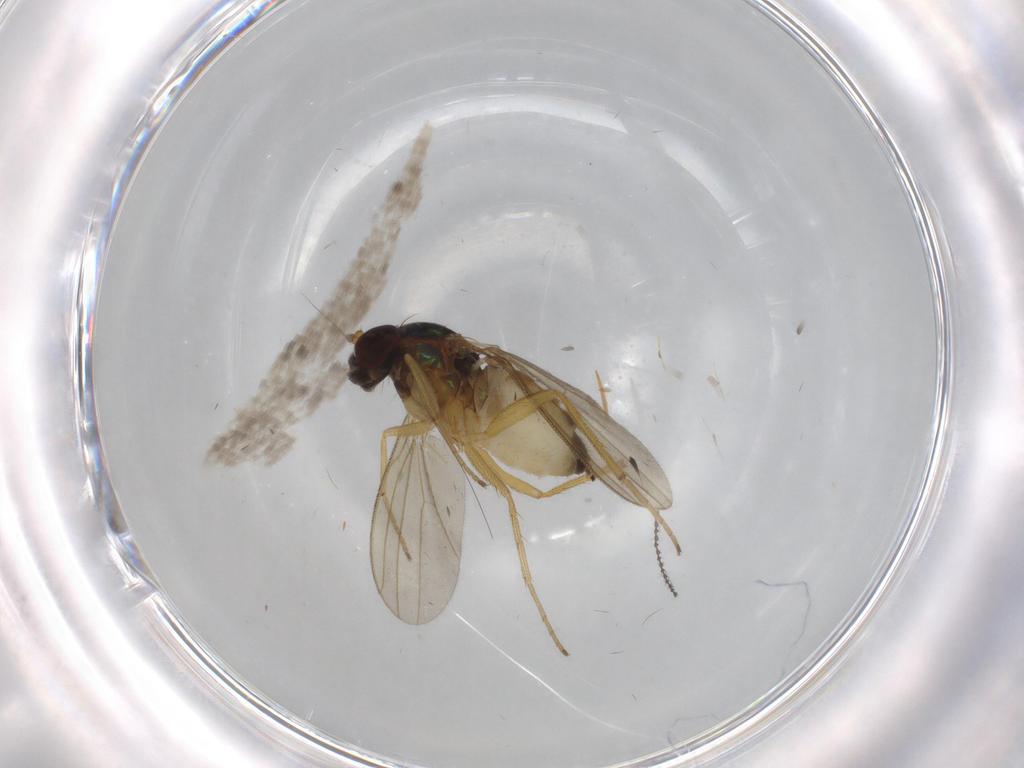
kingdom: Animalia
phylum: Arthropoda
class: Insecta
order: Diptera
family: Dolichopodidae
